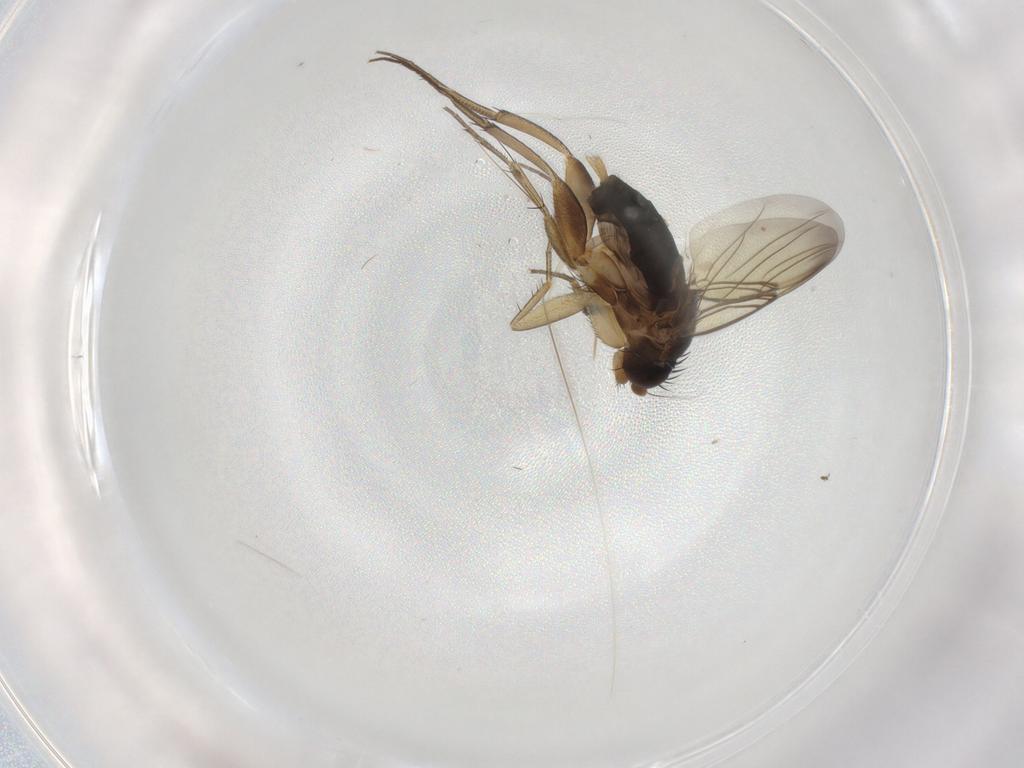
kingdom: Animalia
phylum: Arthropoda
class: Insecta
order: Diptera
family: Phoridae
